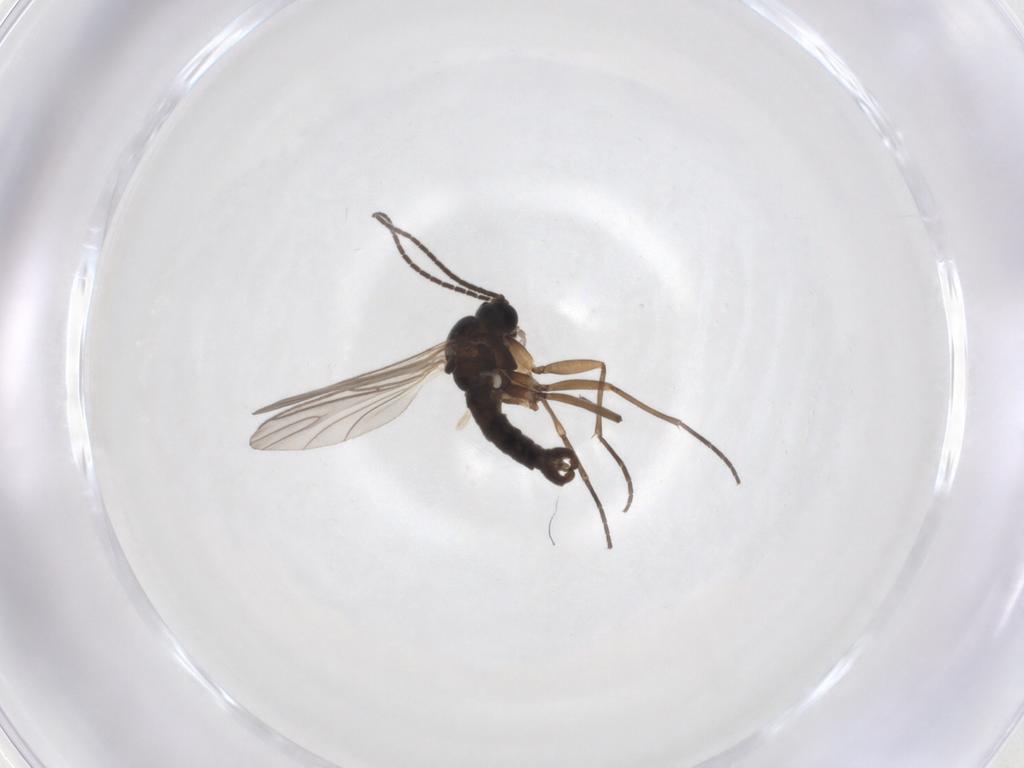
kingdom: Animalia
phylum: Arthropoda
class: Insecta
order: Diptera
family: Sciaridae
